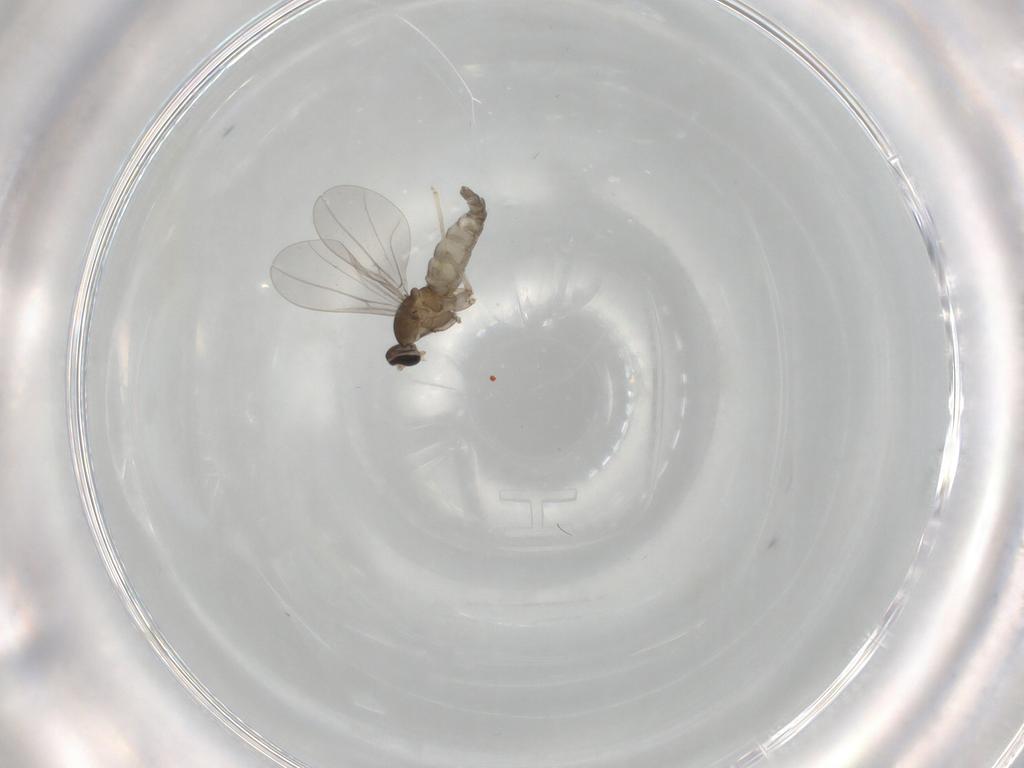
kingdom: Animalia
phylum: Arthropoda
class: Insecta
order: Diptera
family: Cecidomyiidae
